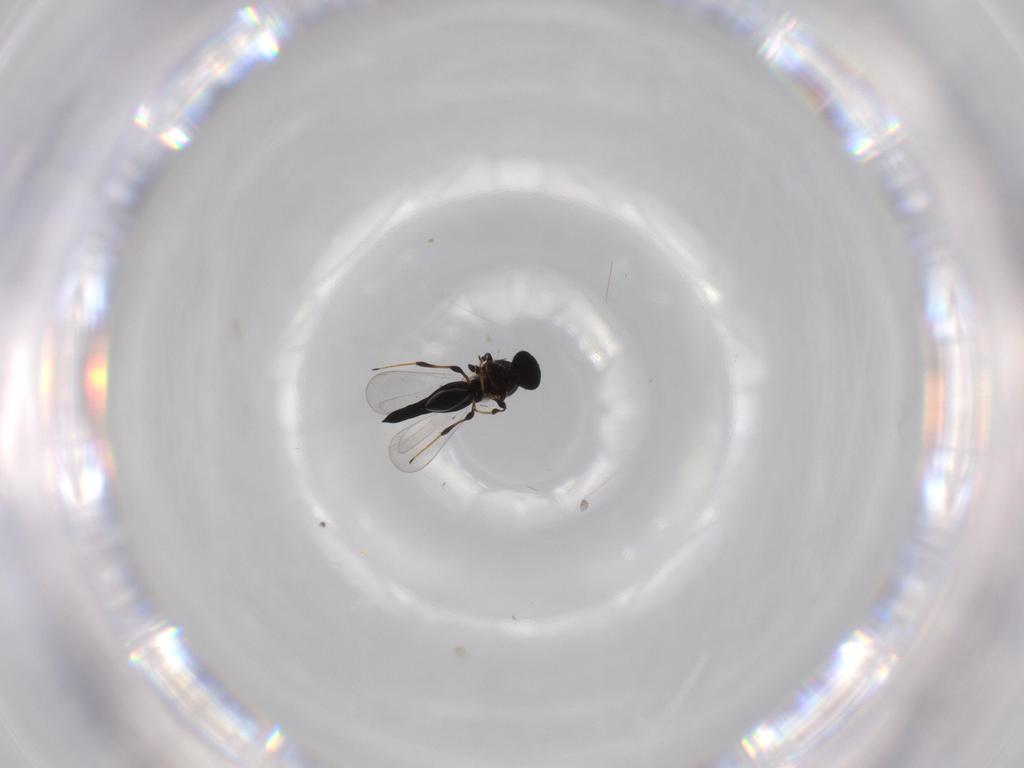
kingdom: Animalia
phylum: Arthropoda
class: Insecta
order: Hymenoptera
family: Platygastridae
